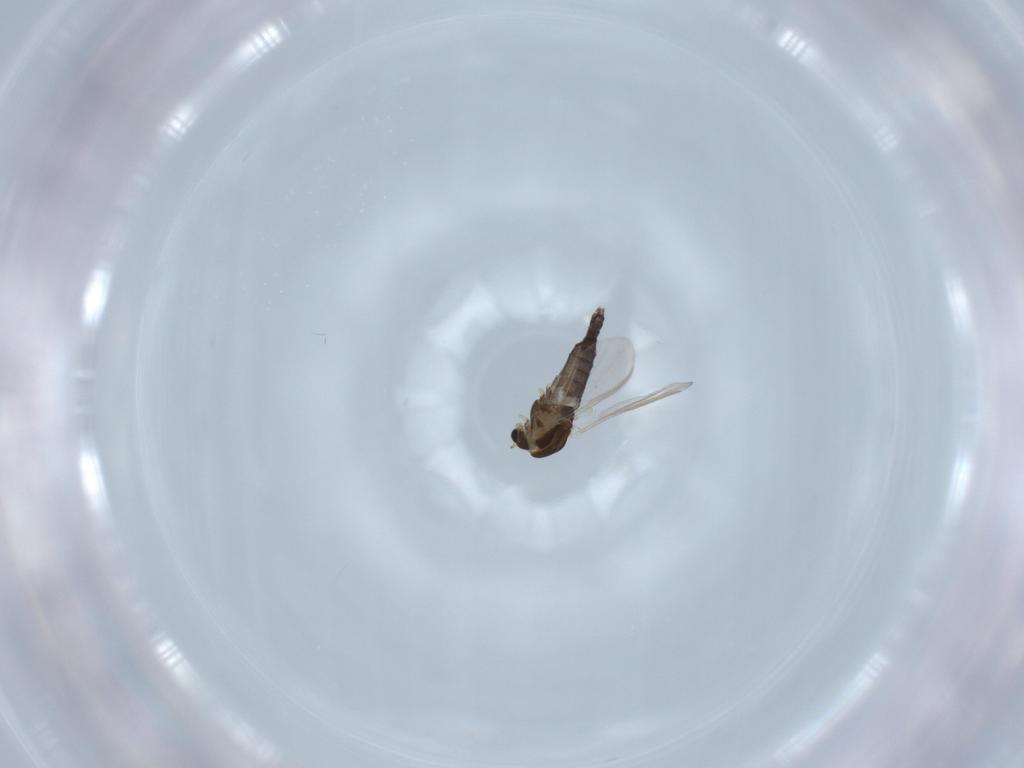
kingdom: Animalia
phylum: Arthropoda
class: Insecta
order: Diptera
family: Chironomidae
